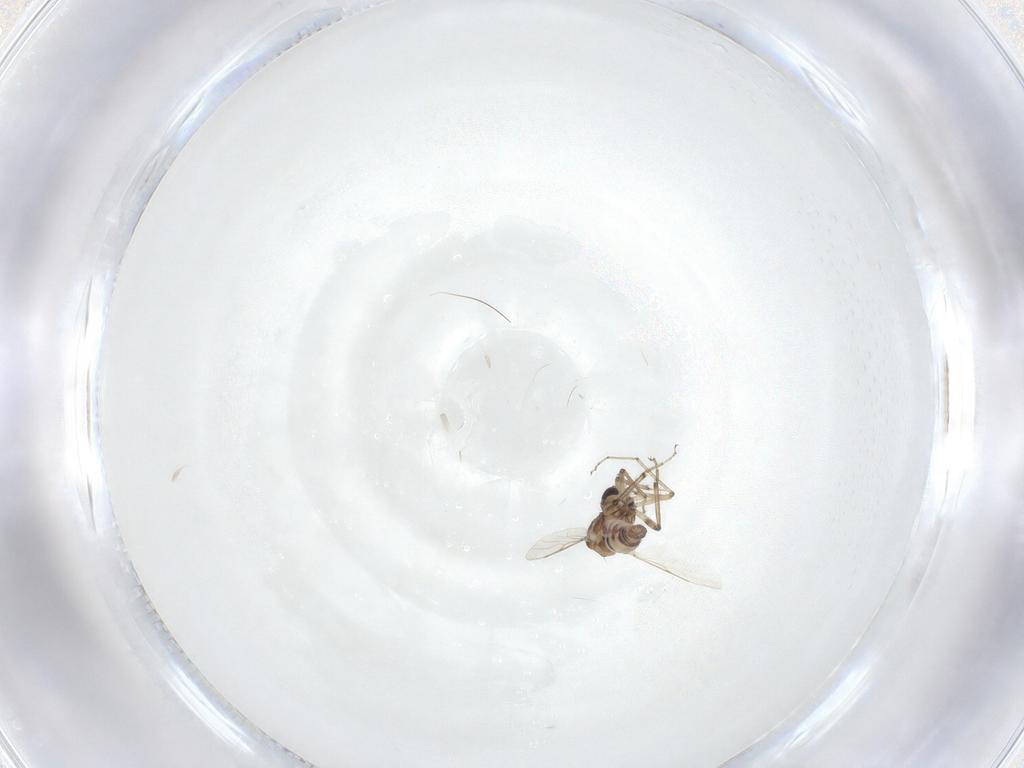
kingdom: Animalia
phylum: Arthropoda
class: Insecta
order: Diptera
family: Ceratopogonidae
